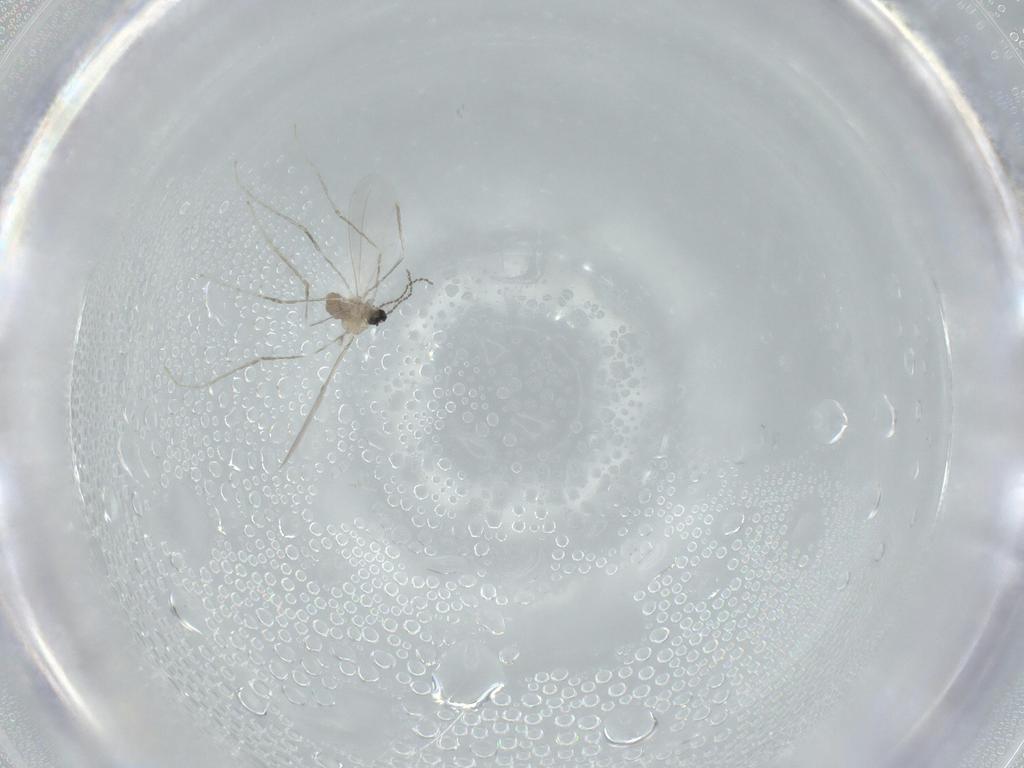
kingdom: Animalia
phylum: Arthropoda
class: Insecta
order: Diptera
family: Cecidomyiidae
